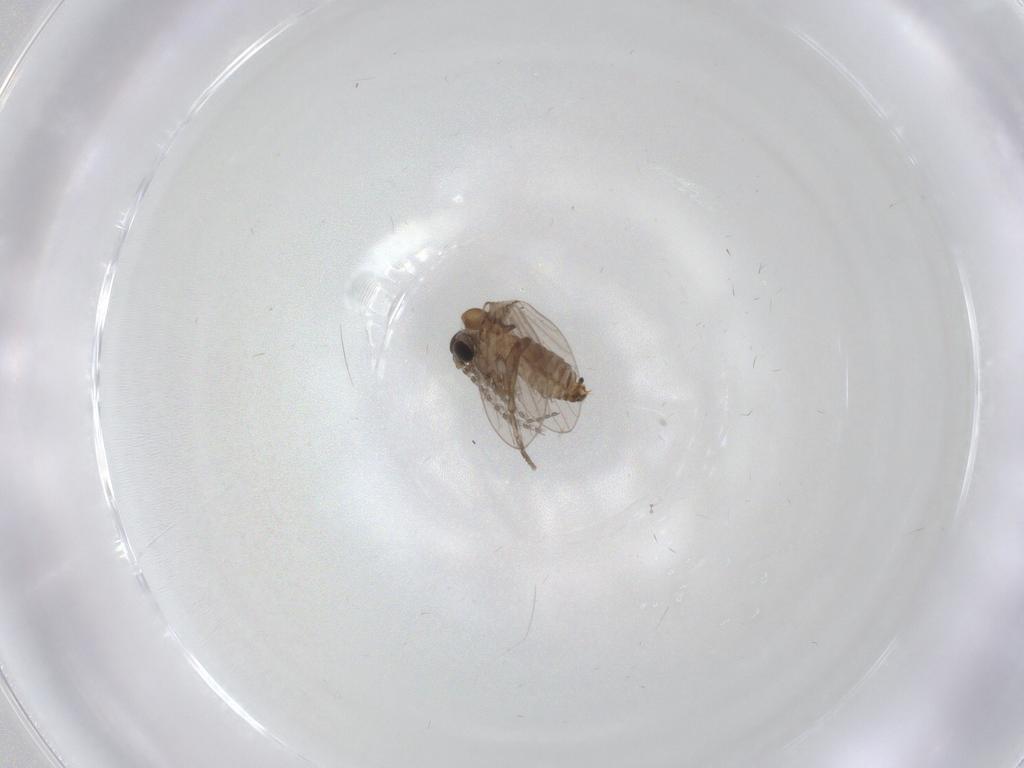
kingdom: Animalia
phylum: Arthropoda
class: Insecta
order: Diptera
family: Psychodidae
